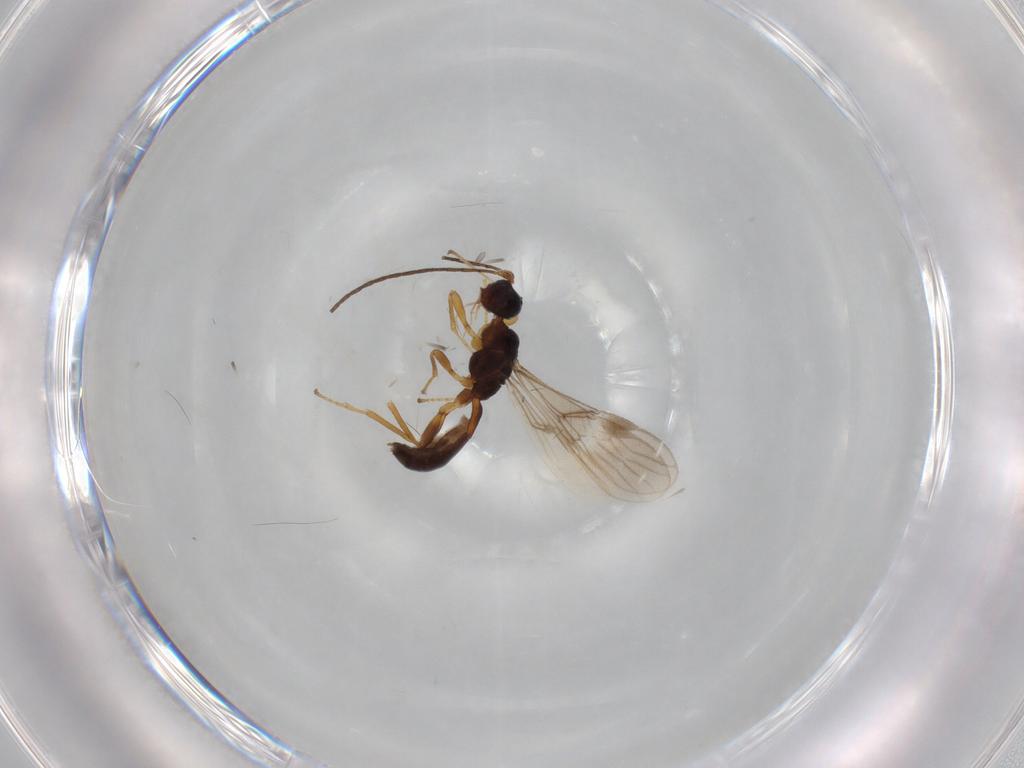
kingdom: Animalia
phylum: Arthropoda
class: Insecta
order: Hymenoptera
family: Braconidae
